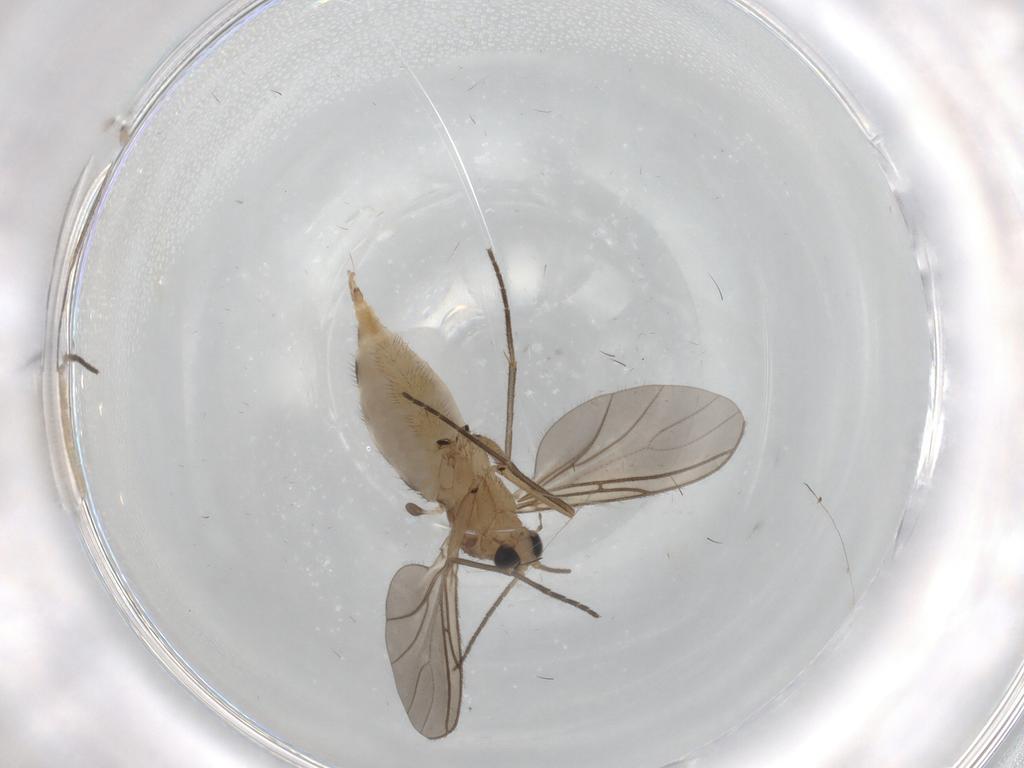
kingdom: Animalia
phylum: Arthropoda
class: Insecta
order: Diptera
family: Sciaridae
